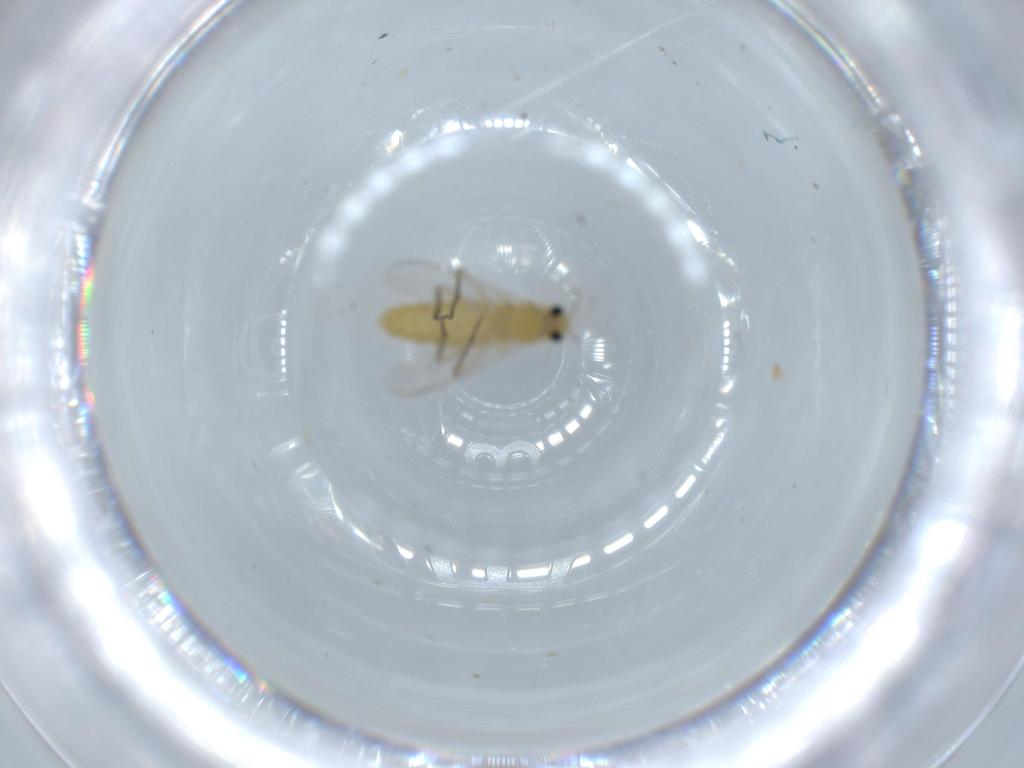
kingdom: Animalia
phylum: Arthropoda
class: Insecta
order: Diptera
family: Chironomidae
